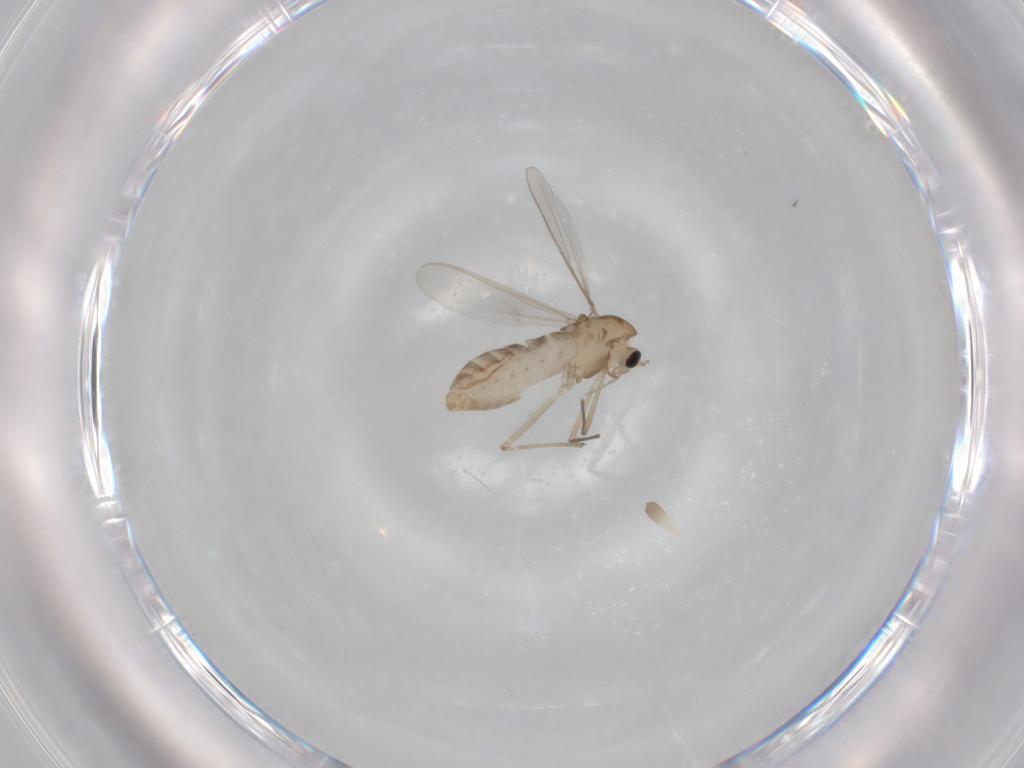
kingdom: Animalia
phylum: Arthropoda
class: Insecta
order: Diptera
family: Chironomidae
